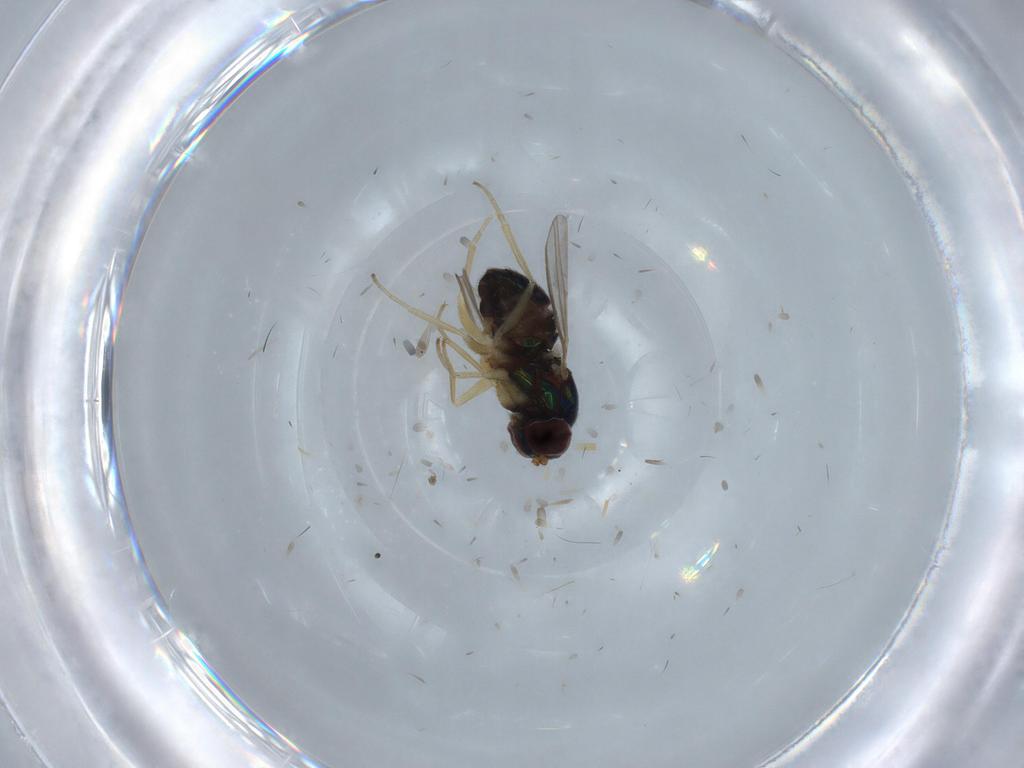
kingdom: Animalia
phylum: Arthropoda
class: Insecta
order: Diptera
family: Dolichopodidae
